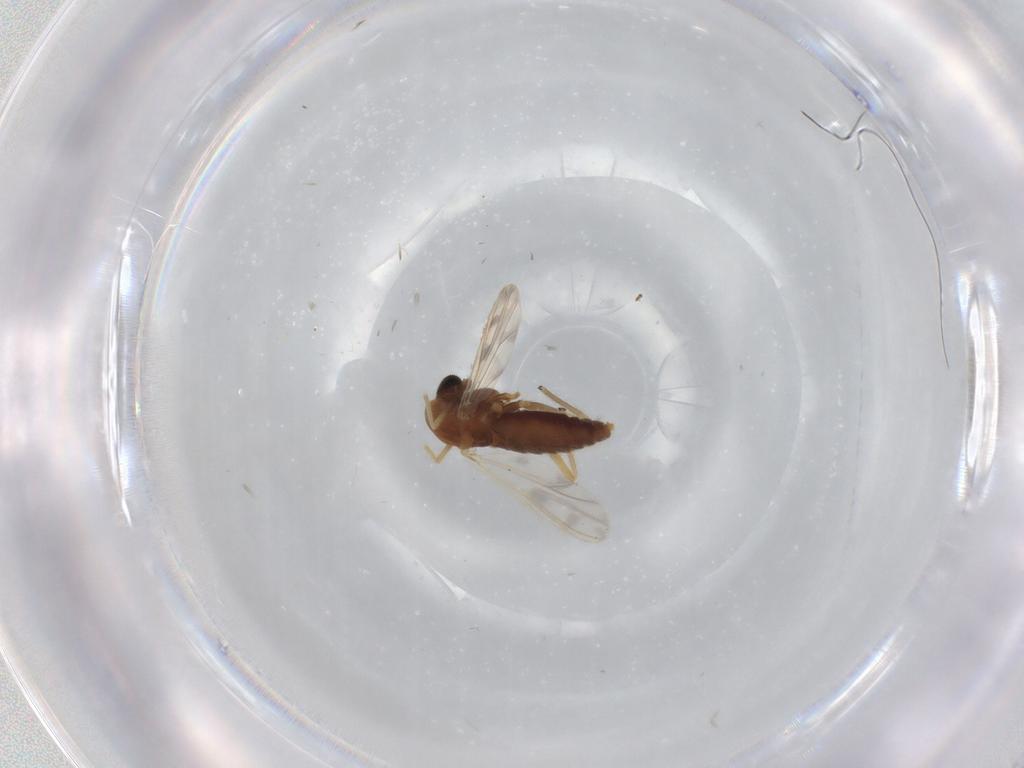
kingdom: Animalia
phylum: Arthropoda
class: Insecta
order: Diptera
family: Chironomidae
